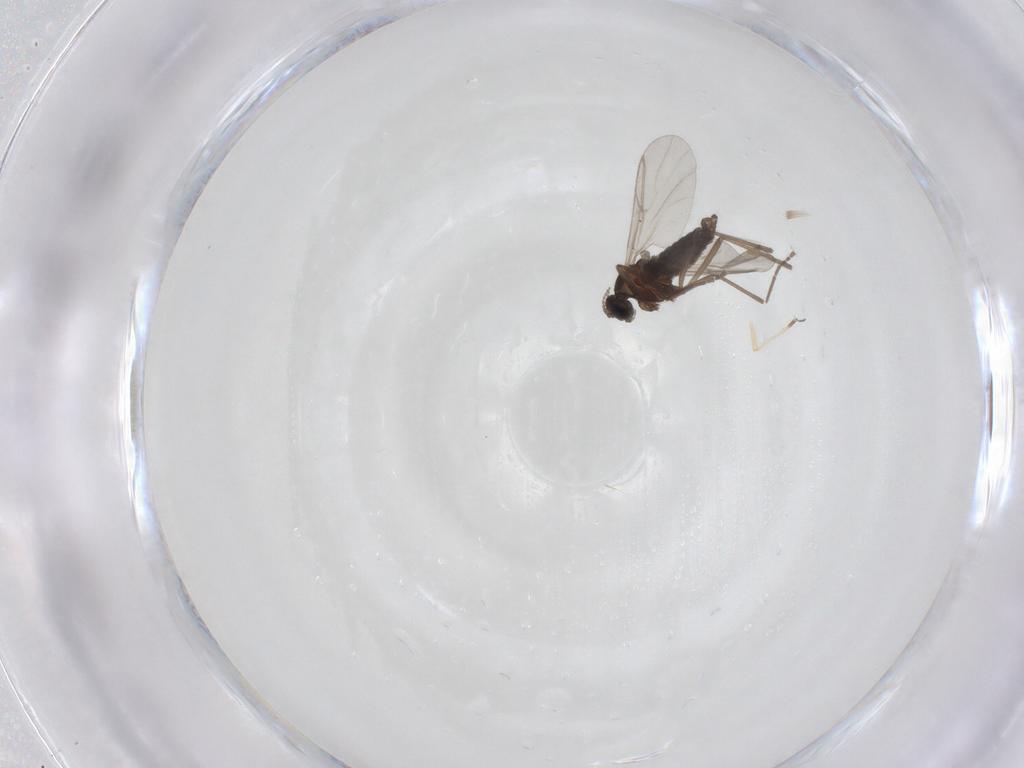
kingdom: Animalia
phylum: Arthropoda
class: Insecta
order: Diptera
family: Cecidomyiidae
